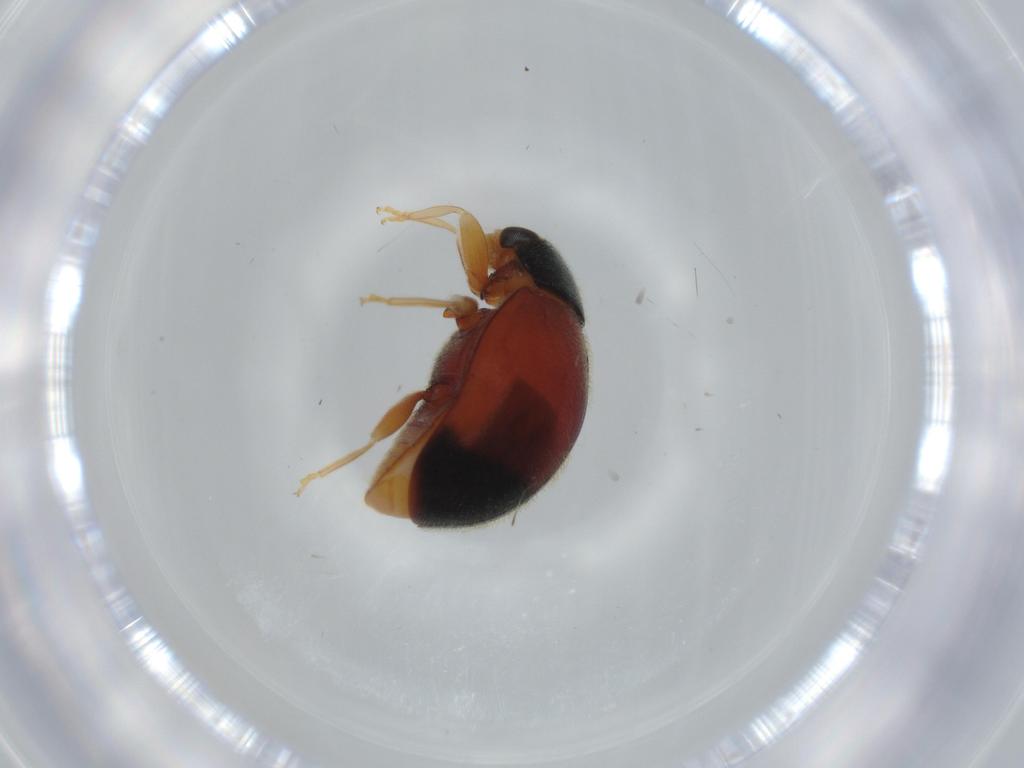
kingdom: Animalia
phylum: Arthropoda
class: Insecta
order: Coleoptera
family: Coccinellidae
